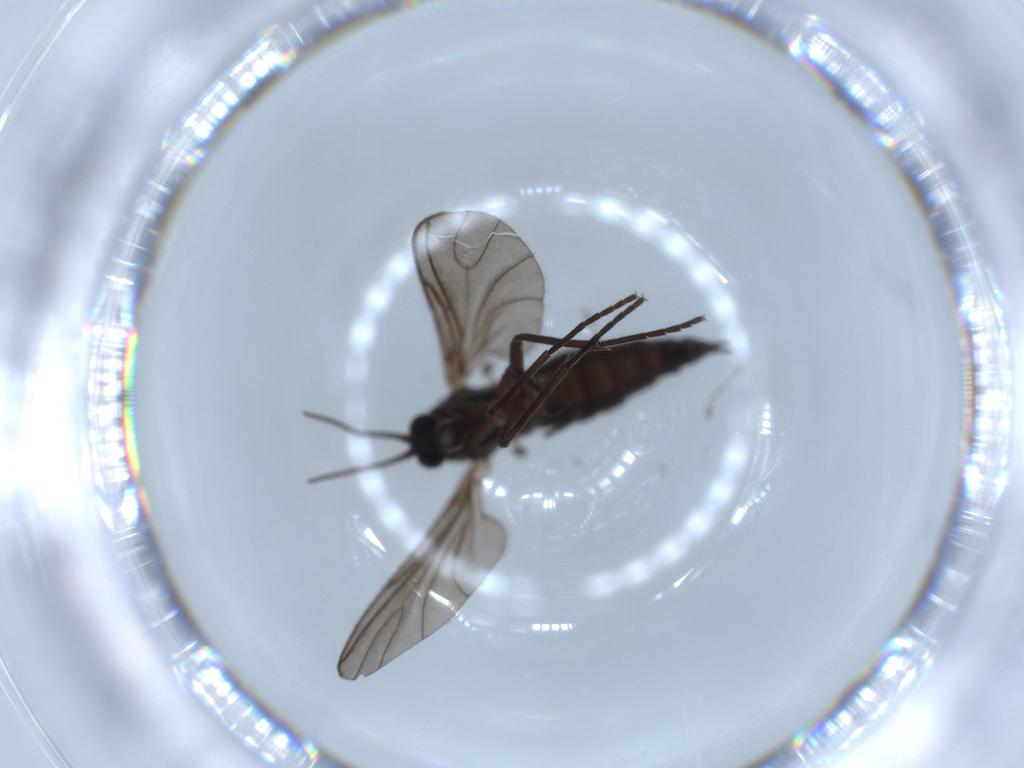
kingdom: Animalia
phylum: Arthropoda
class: Insecta
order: Diptera
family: Sciaridae
